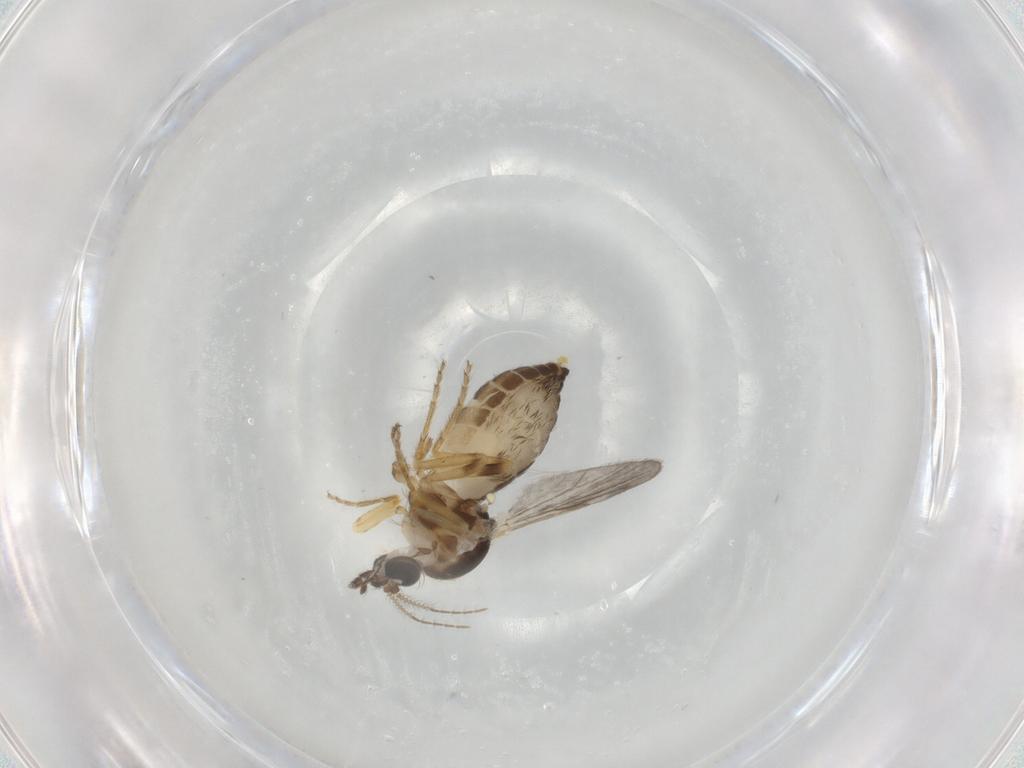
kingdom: Animalia
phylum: Arthropoda
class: Insecta
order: Diptera
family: Ceratopogonidae
